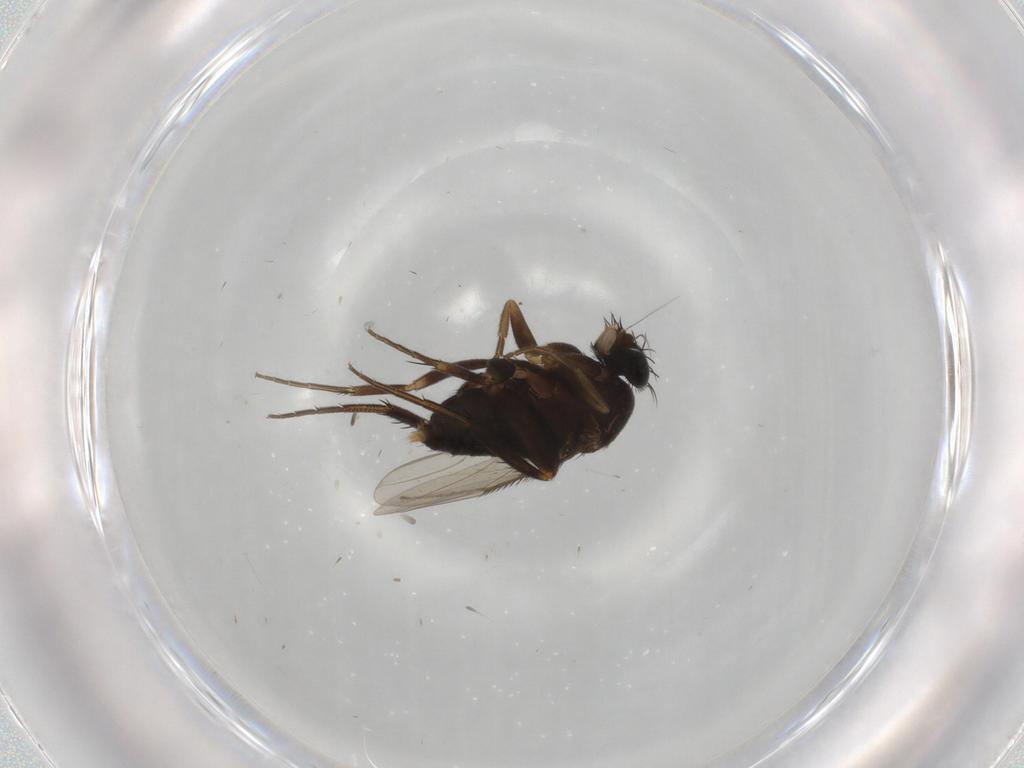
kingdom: Animalia
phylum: Arthropoda
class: Insecta
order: Diptera
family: Phoridae
